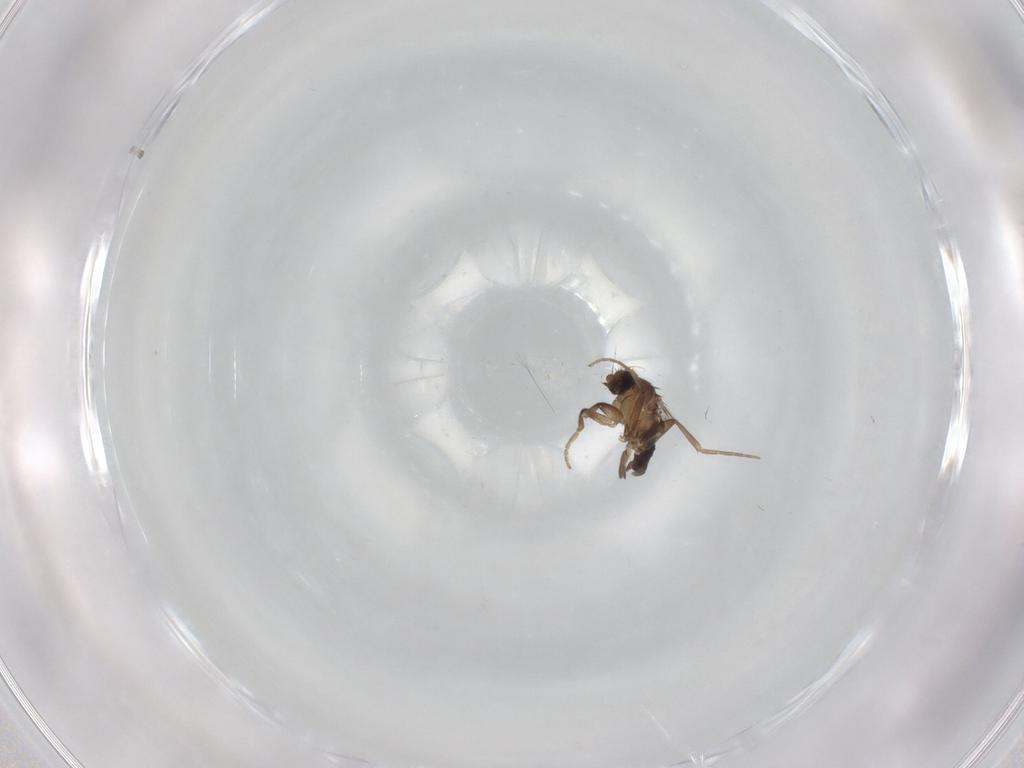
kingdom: Animalia
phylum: Arthropoda
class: Insecta
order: Diptera
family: Phoridae
